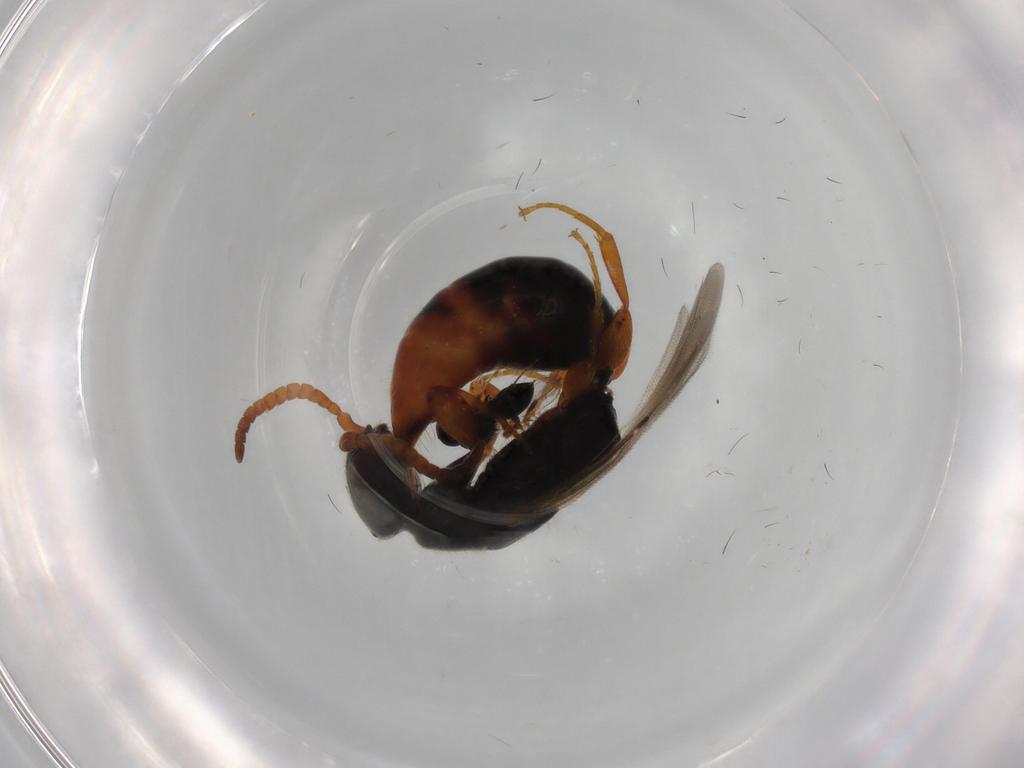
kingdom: Animalia
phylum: Arthropoda
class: Insecta
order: Hymenoptera
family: Bethylidae
